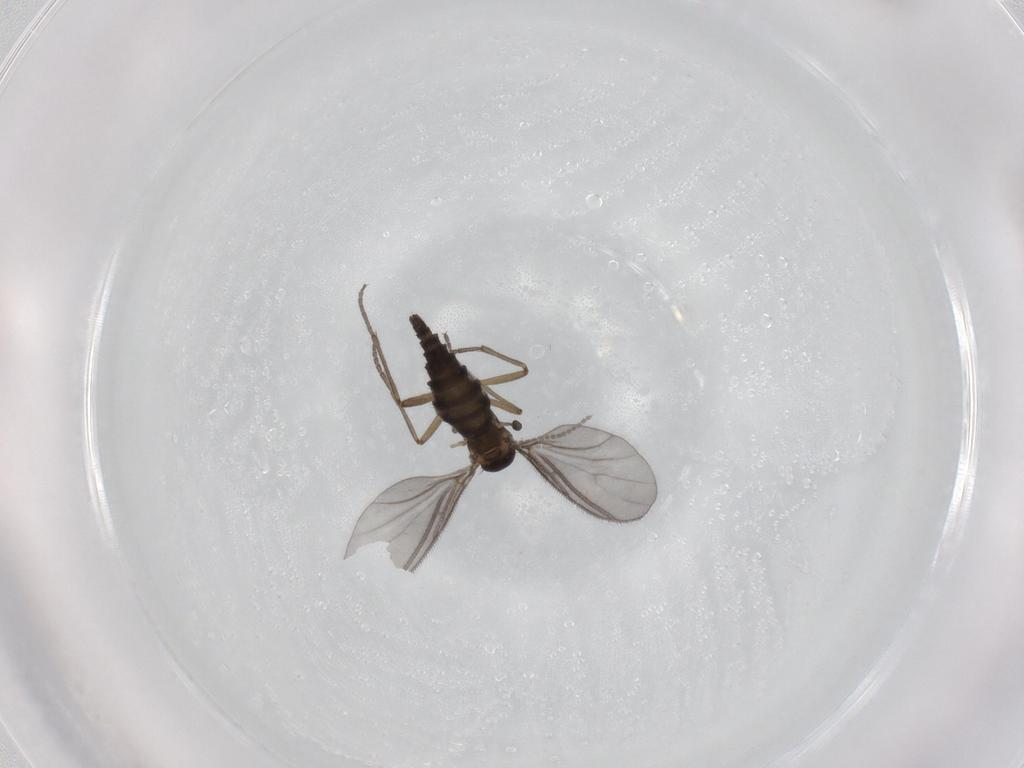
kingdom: Animalia
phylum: Arthropoda
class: Insecta
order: Diptera
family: Sciaridae
